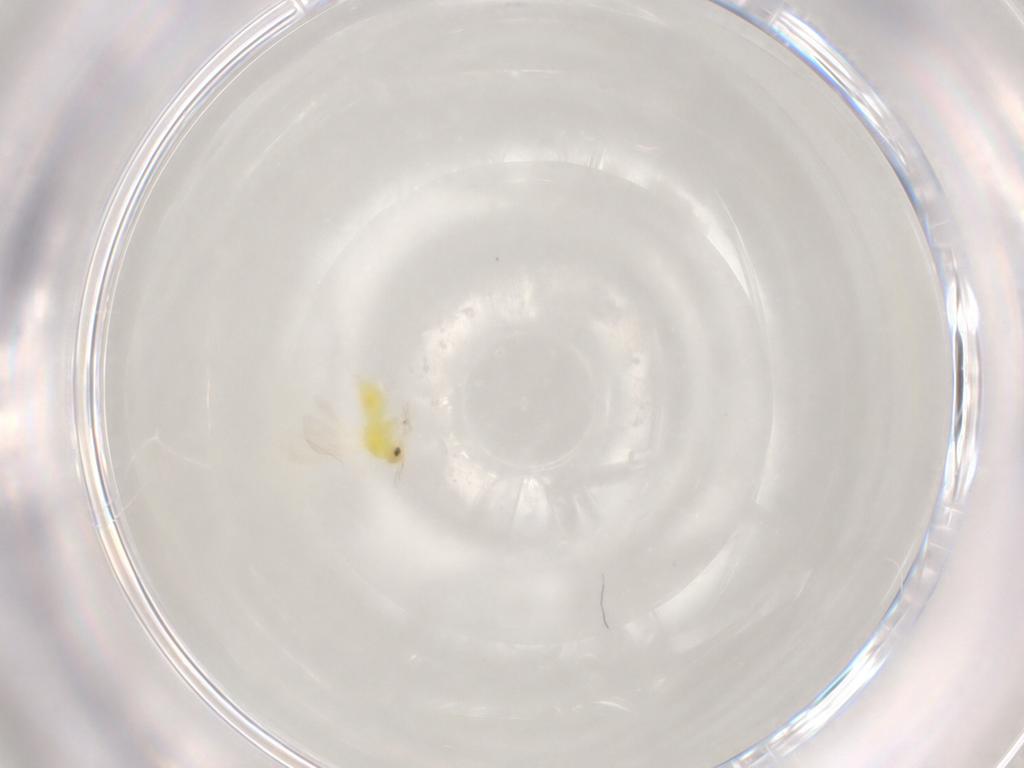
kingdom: Animalia
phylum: Arthropoda
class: Insecta
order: Hemiptera
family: Aleyrodidae
